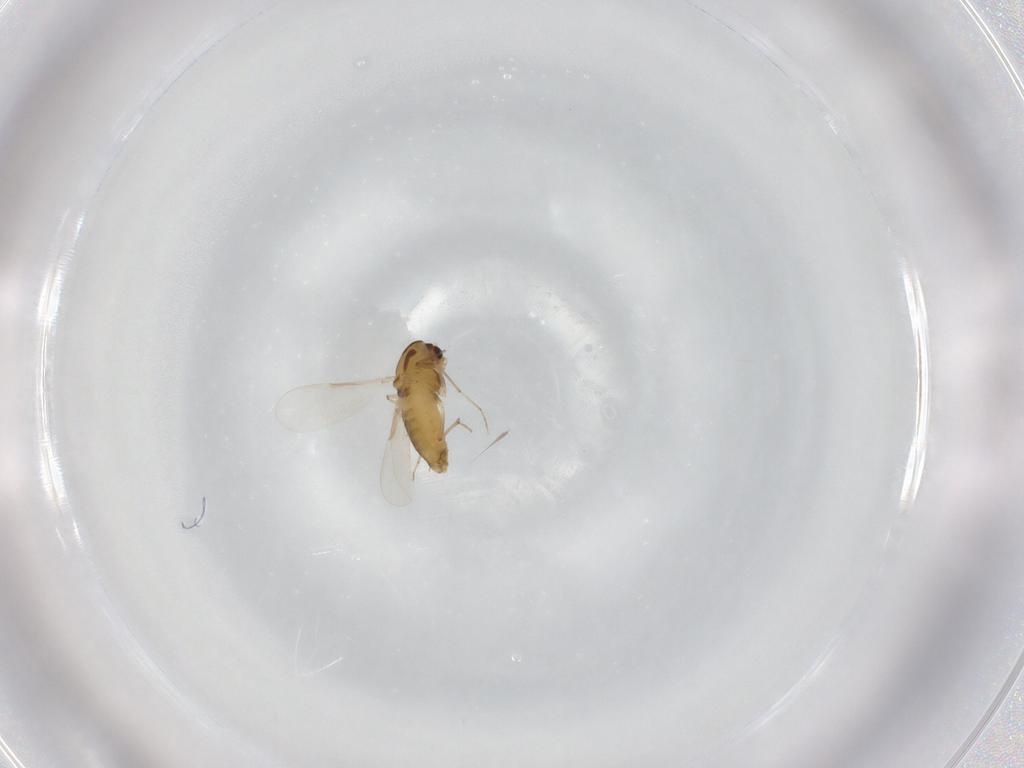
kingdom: Animalia
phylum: Arthropoda
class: Insecta
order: Diptera
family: Chironomidae
